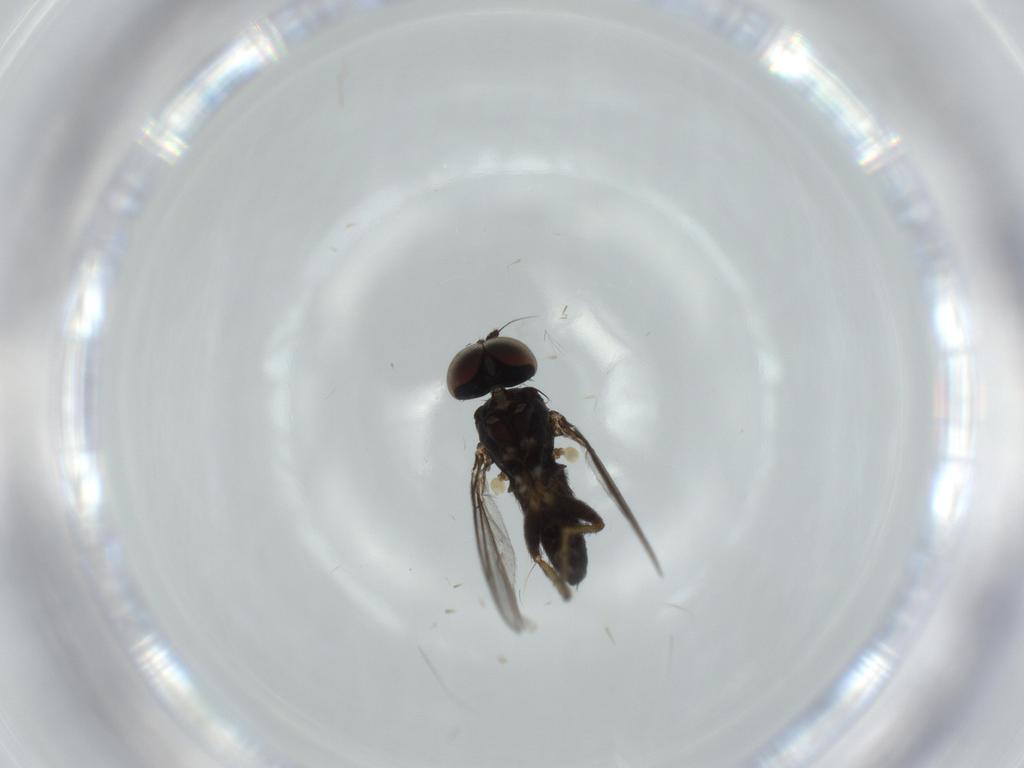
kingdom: Animalia
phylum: Arthropoda
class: Insecta
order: Diptera
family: Dolichopodidae
